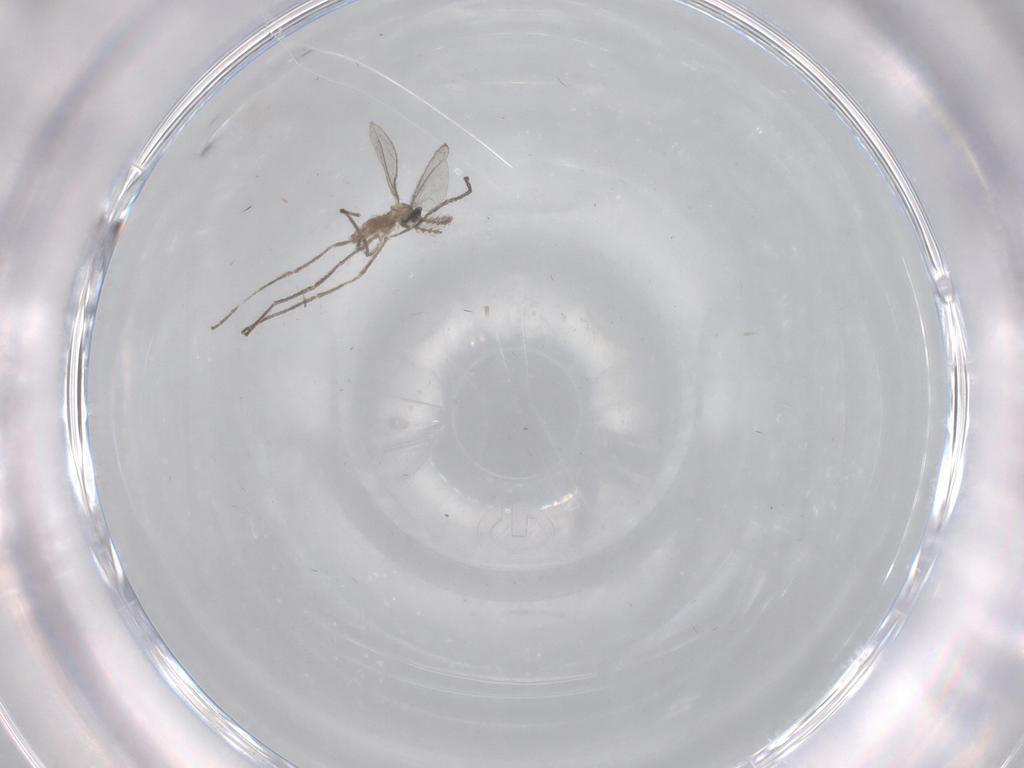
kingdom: Animalia
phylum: Arthropoda
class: Insecta
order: Diptera
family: Cecidomyiidae
